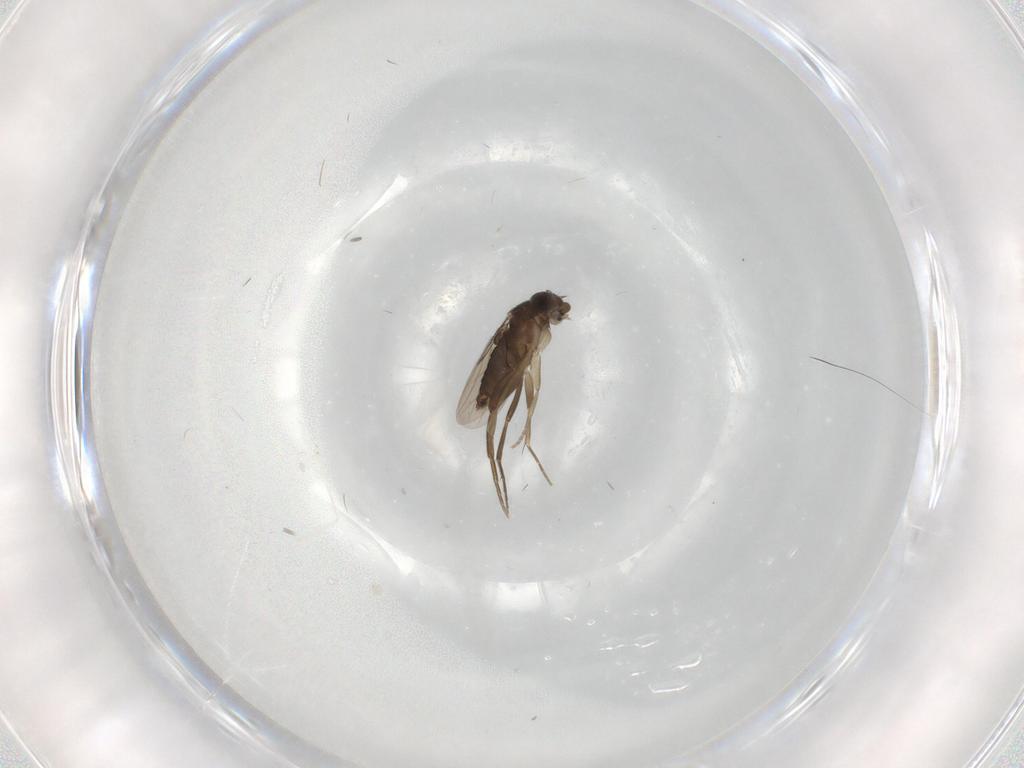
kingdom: Animalia
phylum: Arthropoda
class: Insecta
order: Diptera
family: Phoridae
